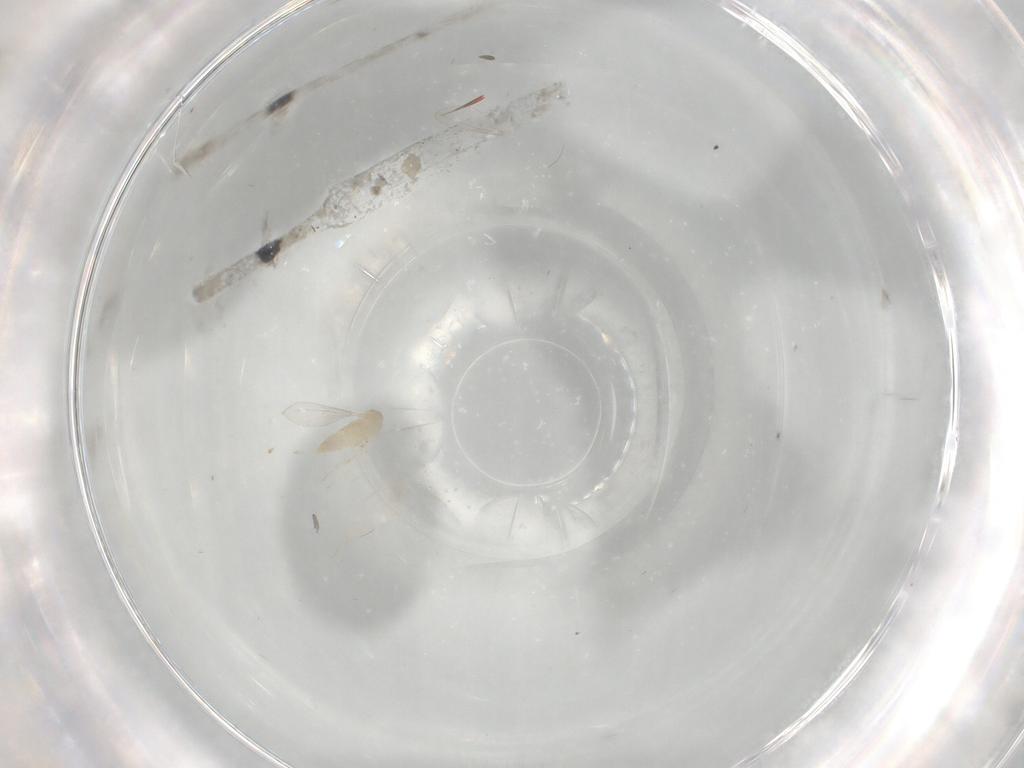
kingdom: Animalia
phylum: Arthropoda
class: Insecta
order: Diptera
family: Cecidomyiidae
